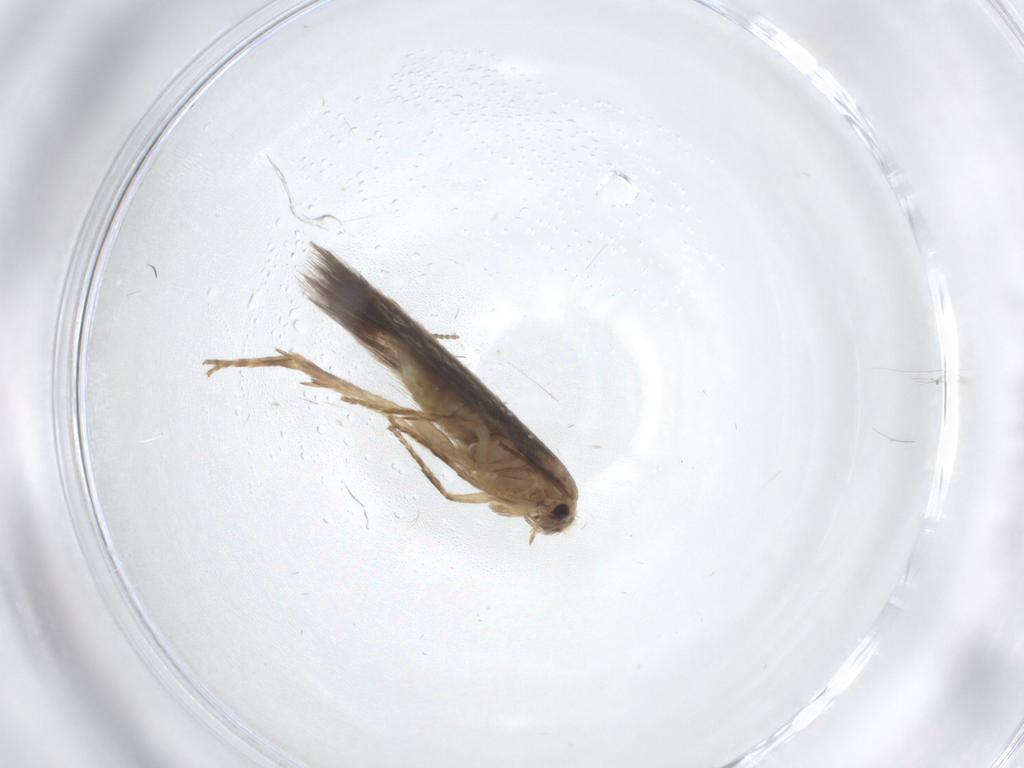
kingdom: Animalia
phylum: Arthropoda
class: Insecta
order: Lepidoptera
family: Nepticulidae
